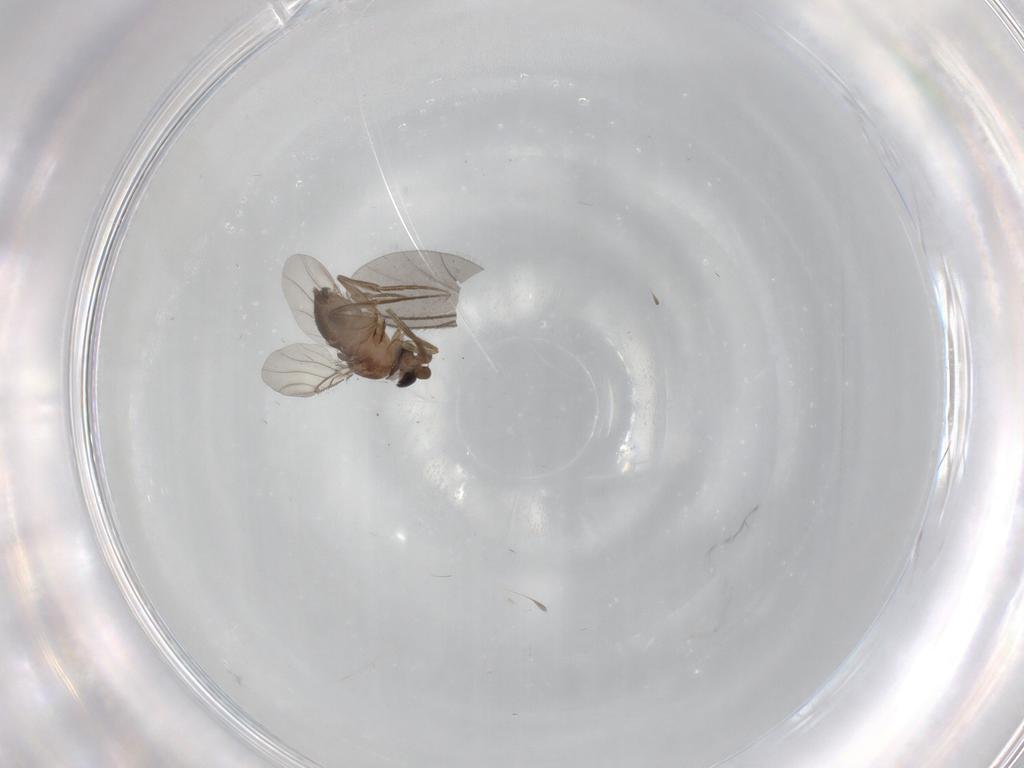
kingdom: Animalia
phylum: Arthropoda
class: Insecta
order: Diptera
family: Phoridae
